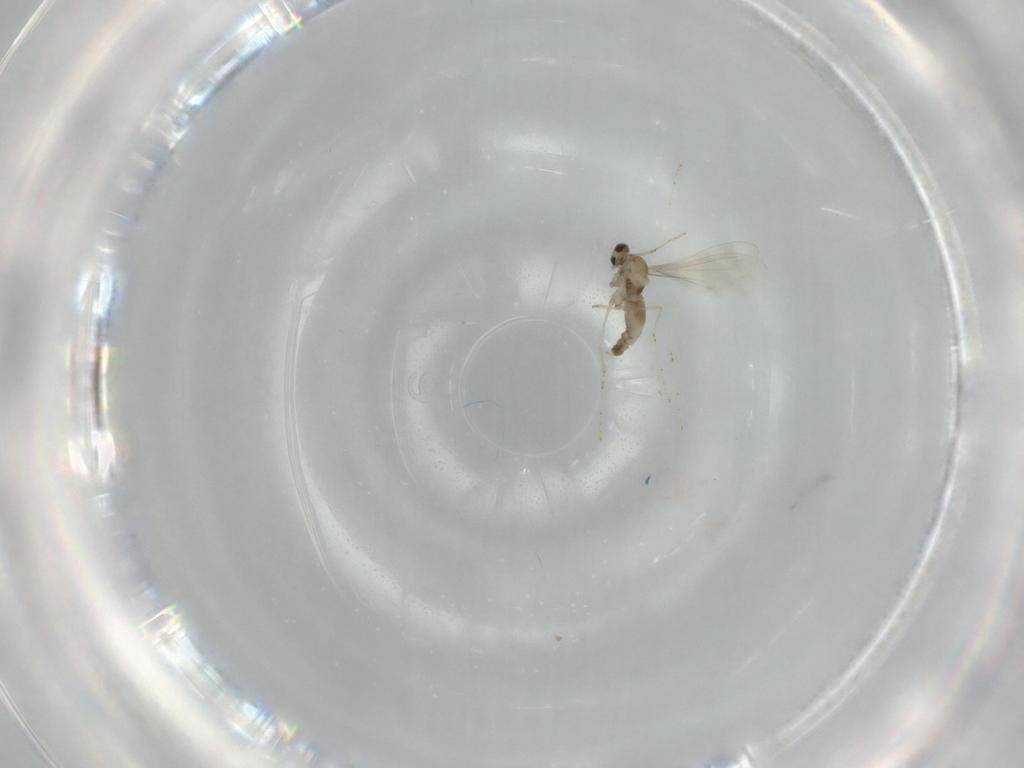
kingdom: Animalia
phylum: Arthropoda
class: Insecta
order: Diptera
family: Cecidomyiidae
